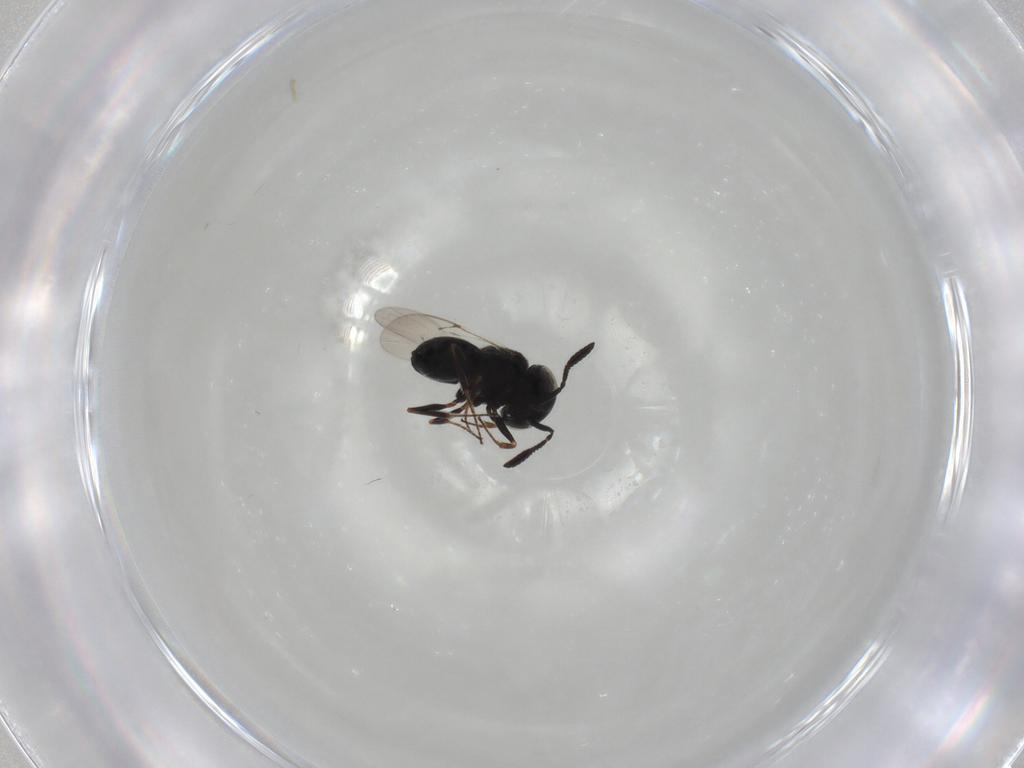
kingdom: Animalia
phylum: Arthropoda
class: Insecta
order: Hymenoptera
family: Scelionidae
